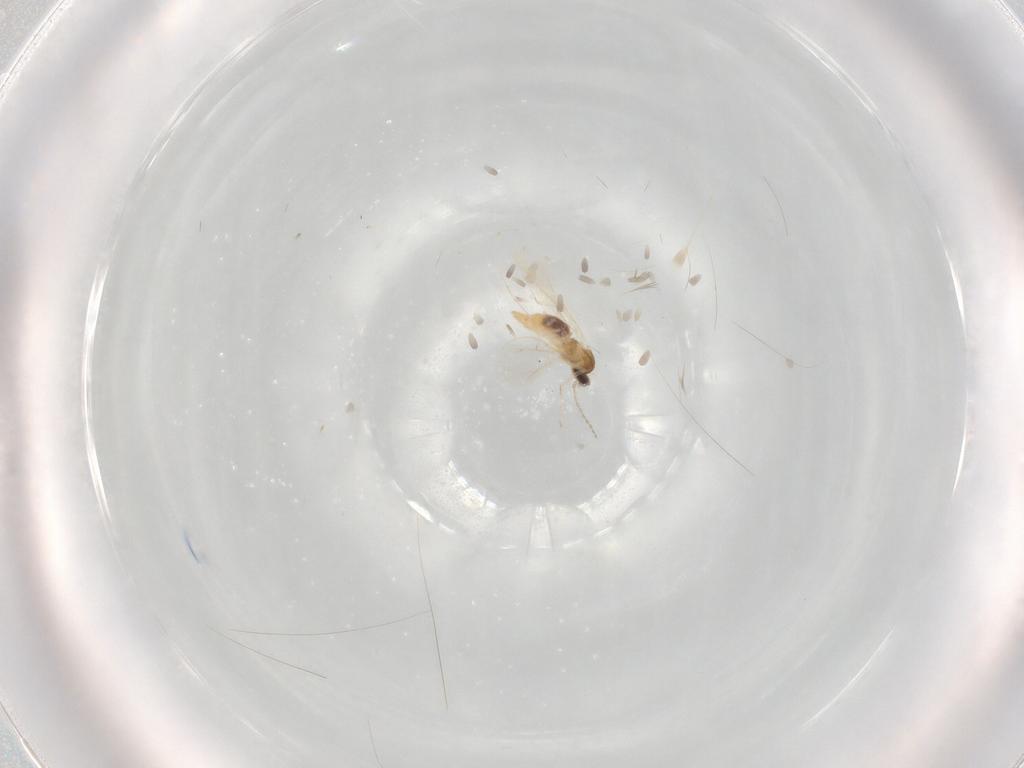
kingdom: Animalia
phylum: Arthropoda
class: Insecta
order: Diptera
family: Cecidomyiidae
